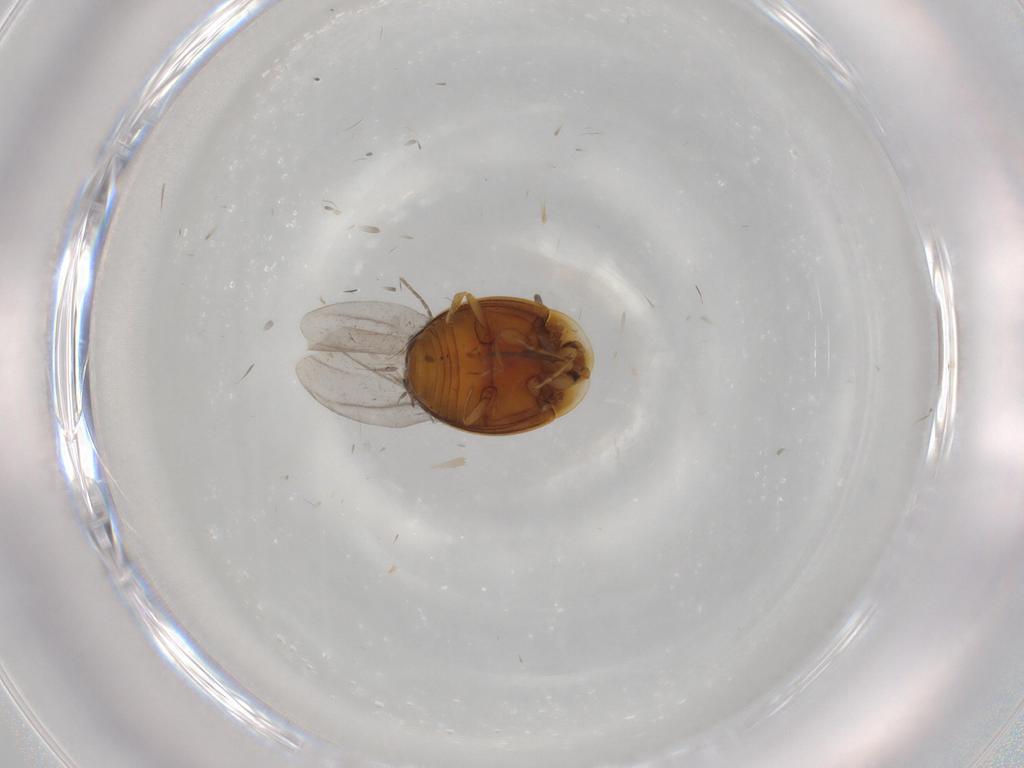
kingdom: Animalia
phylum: Arthropoda
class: Insecta
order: Coleoptera
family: Corylophidae
